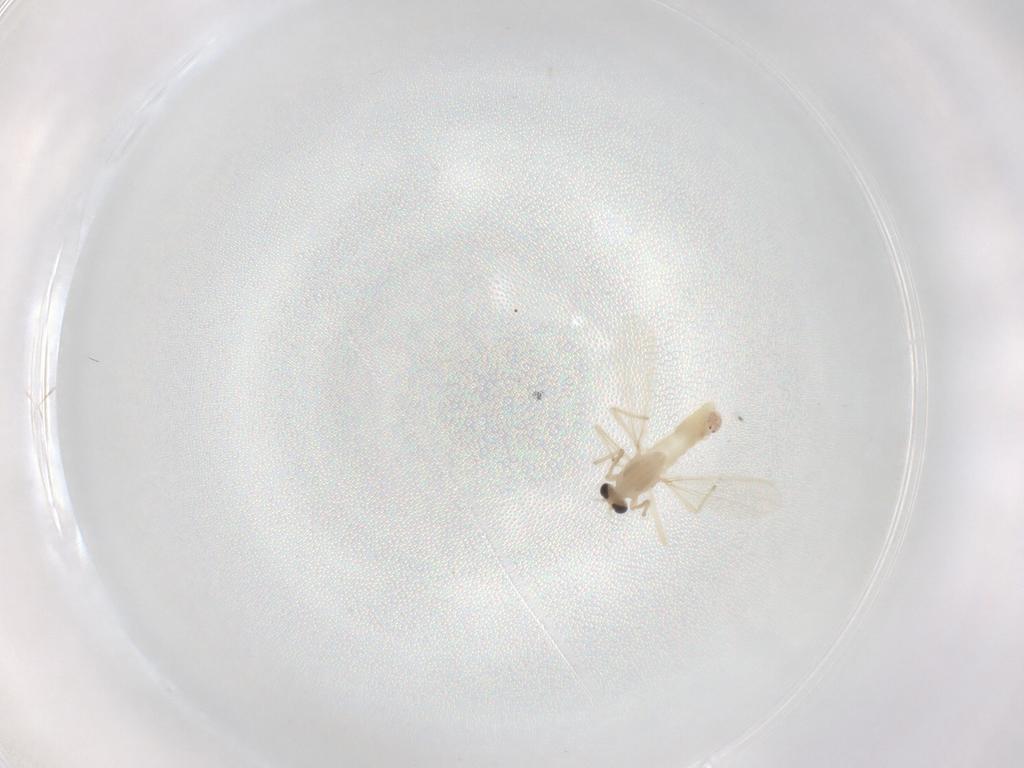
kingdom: Animalia
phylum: Arthropoda
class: Insecta
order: Diptera
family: Chironomidae
